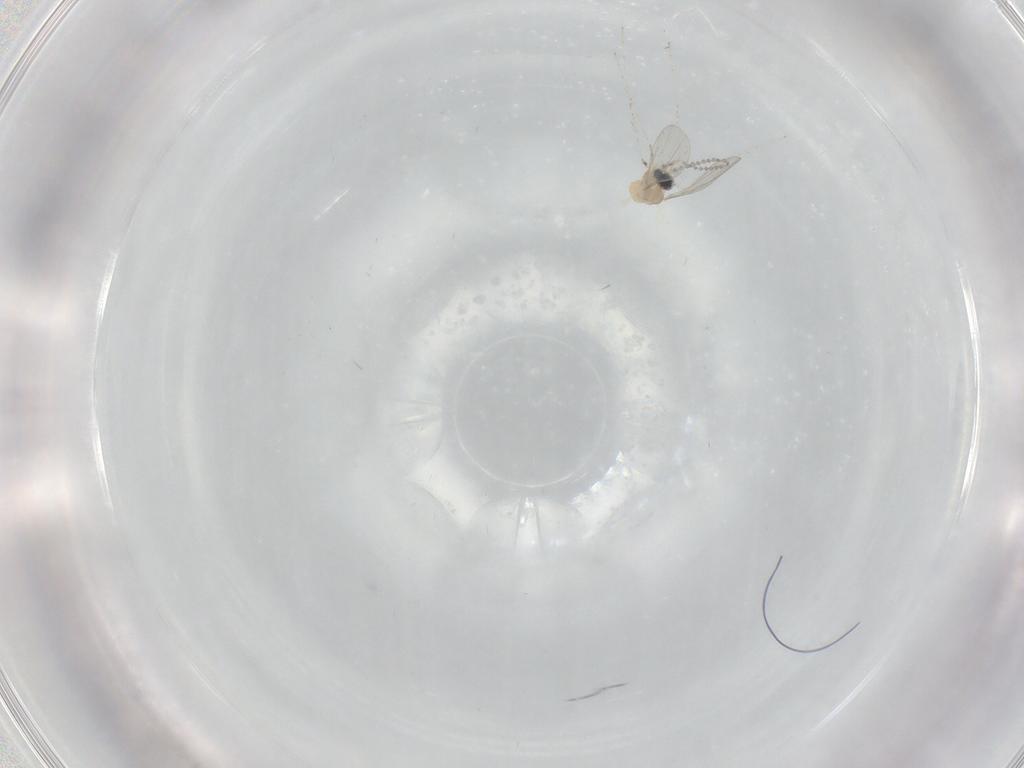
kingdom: Animalia
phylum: Arthropoda
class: Insecta
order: Diptera
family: Cecidomyiidae
